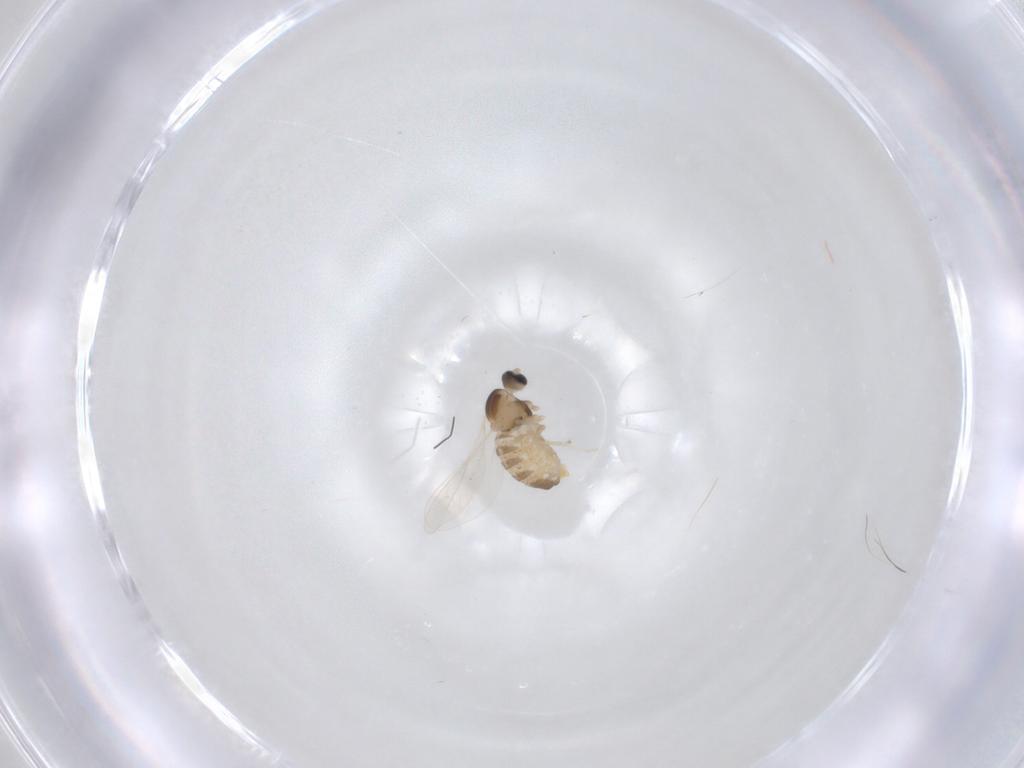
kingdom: Animalia
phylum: Arthropoda
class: Insecta
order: Diptera
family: Cecidomyiidae
